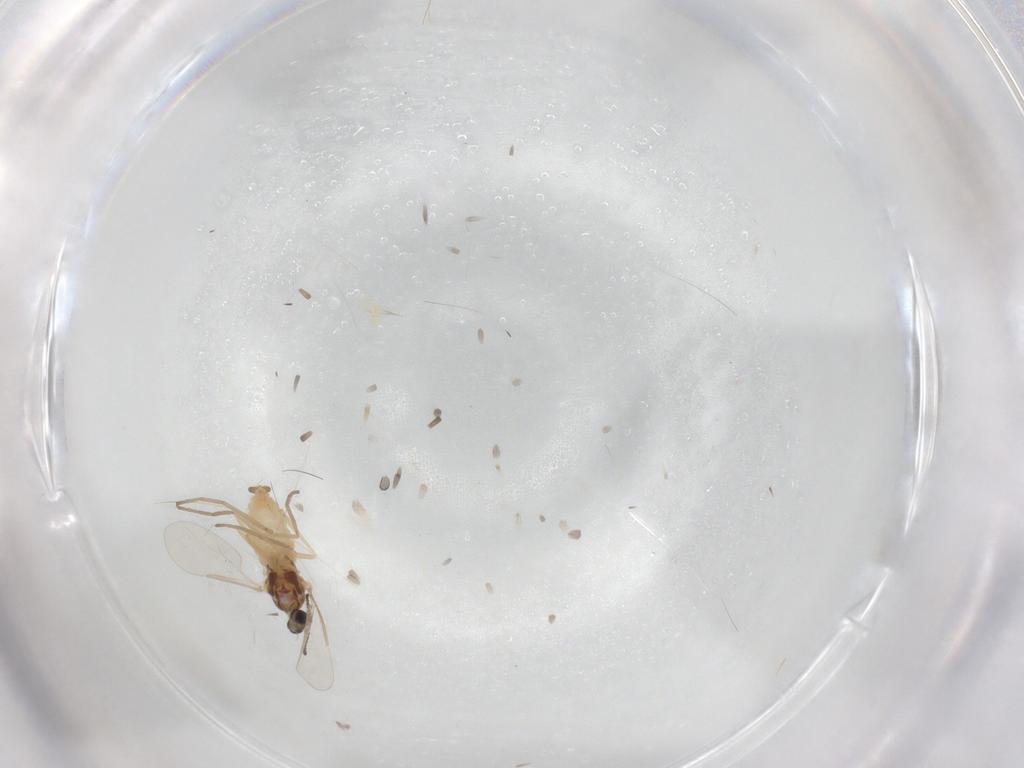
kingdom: Animalia
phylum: Arthropoda
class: Insecta
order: Diptera
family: Cecidomyiidae
